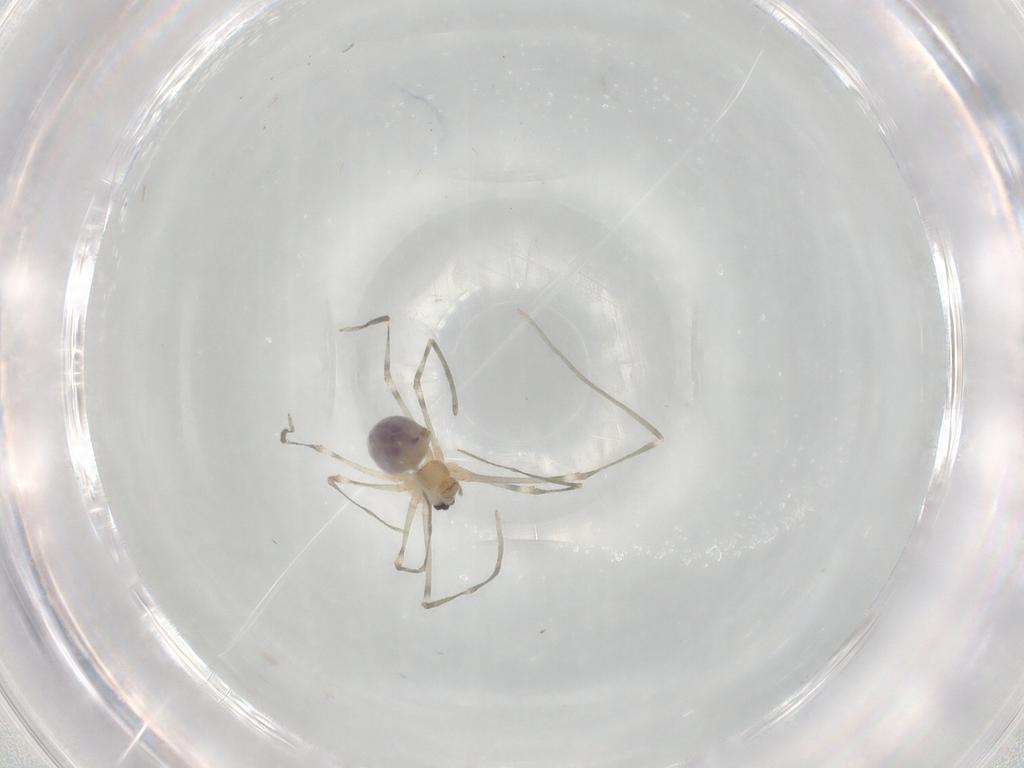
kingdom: Animalia
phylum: Arthropoda
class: Arachnida
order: Araneae
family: Pholcidae
